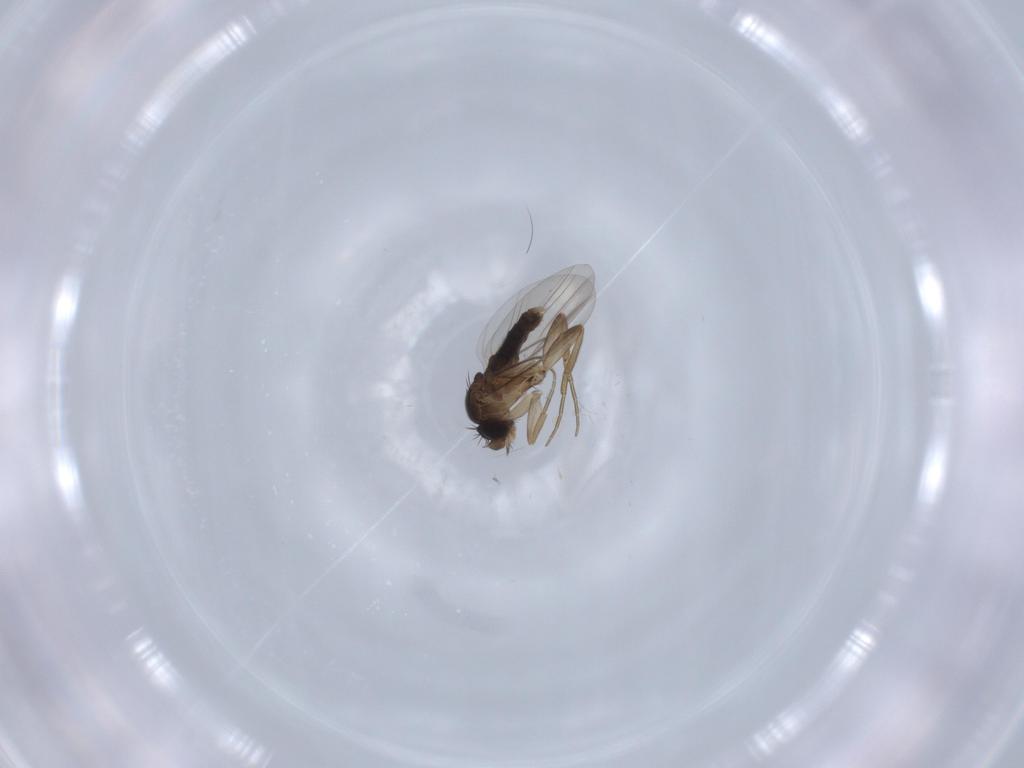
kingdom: Animalia
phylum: Arthropoda
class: Insecta
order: Diptera
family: Phoridae
